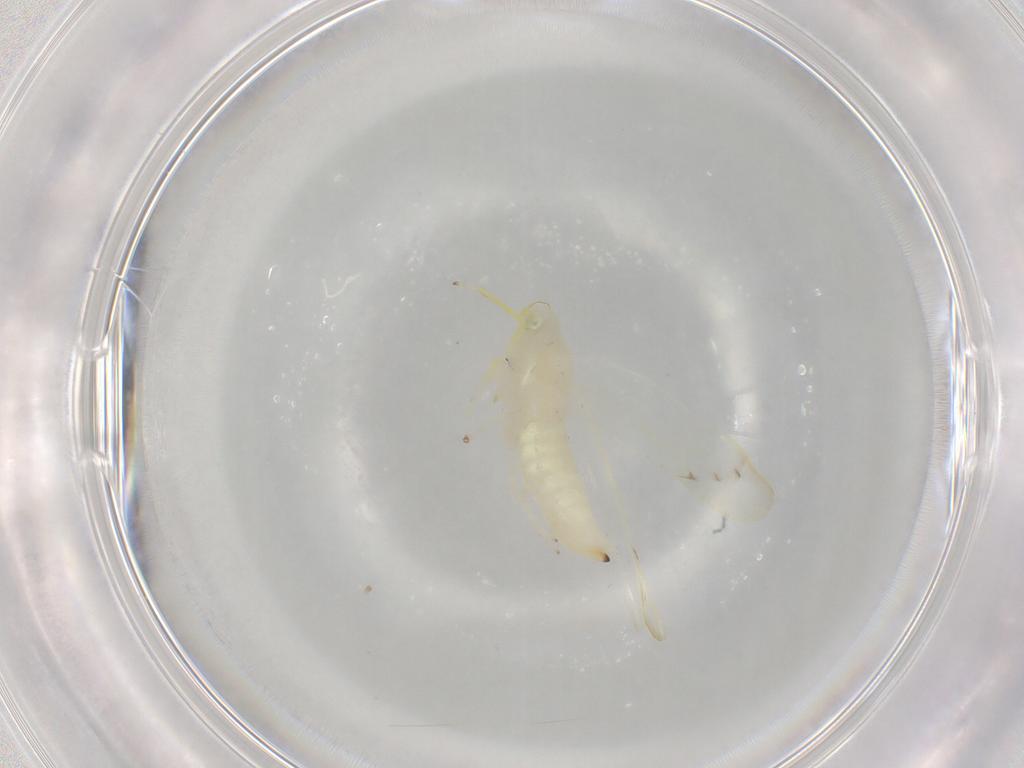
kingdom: Animalia
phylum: Arthropoda
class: Insecta
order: Hemiptera
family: Cicadellidae
